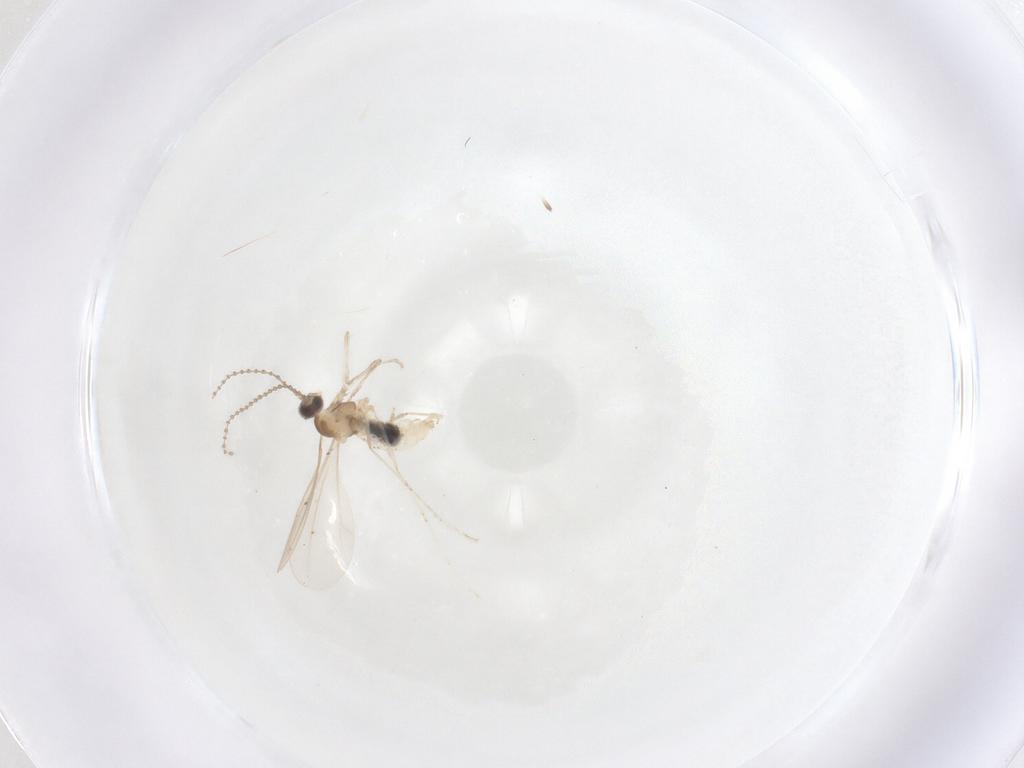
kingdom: Animalia
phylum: Arthropoda
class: Insecta
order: Diptera
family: Cecidomyiidae
